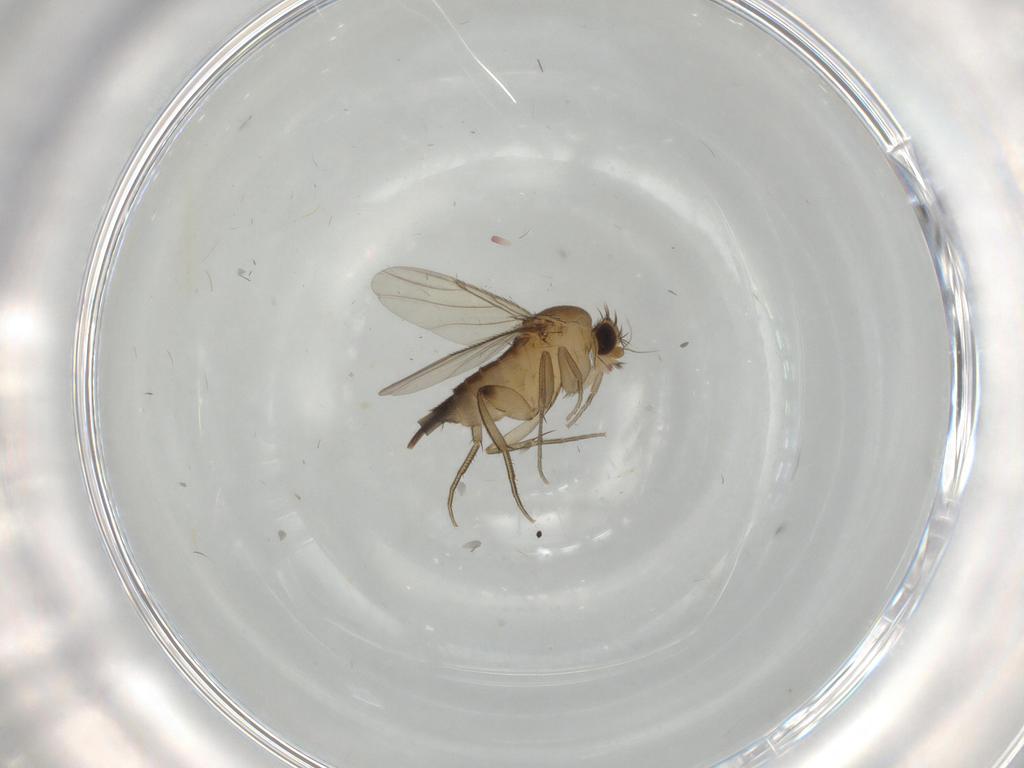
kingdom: Animalia
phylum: Arthropoda
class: Insecta
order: Diptera
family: Phoridae
